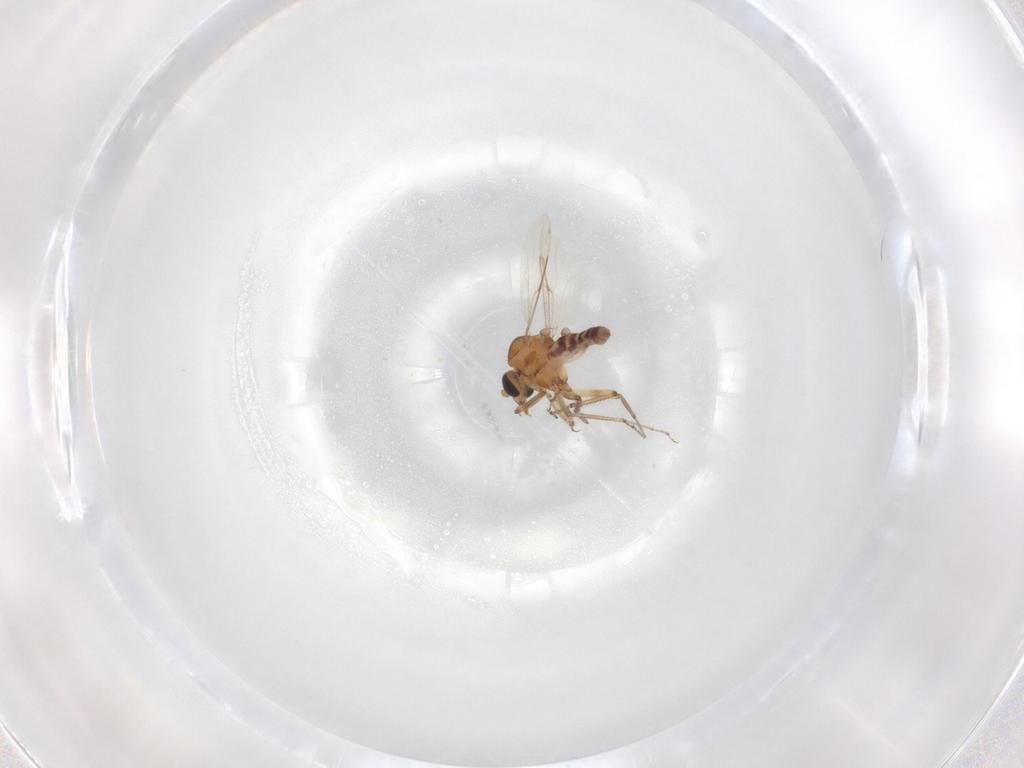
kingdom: Animalia
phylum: Arthropoda
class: Insecta
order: Diptera
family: Ceratopogonidae
